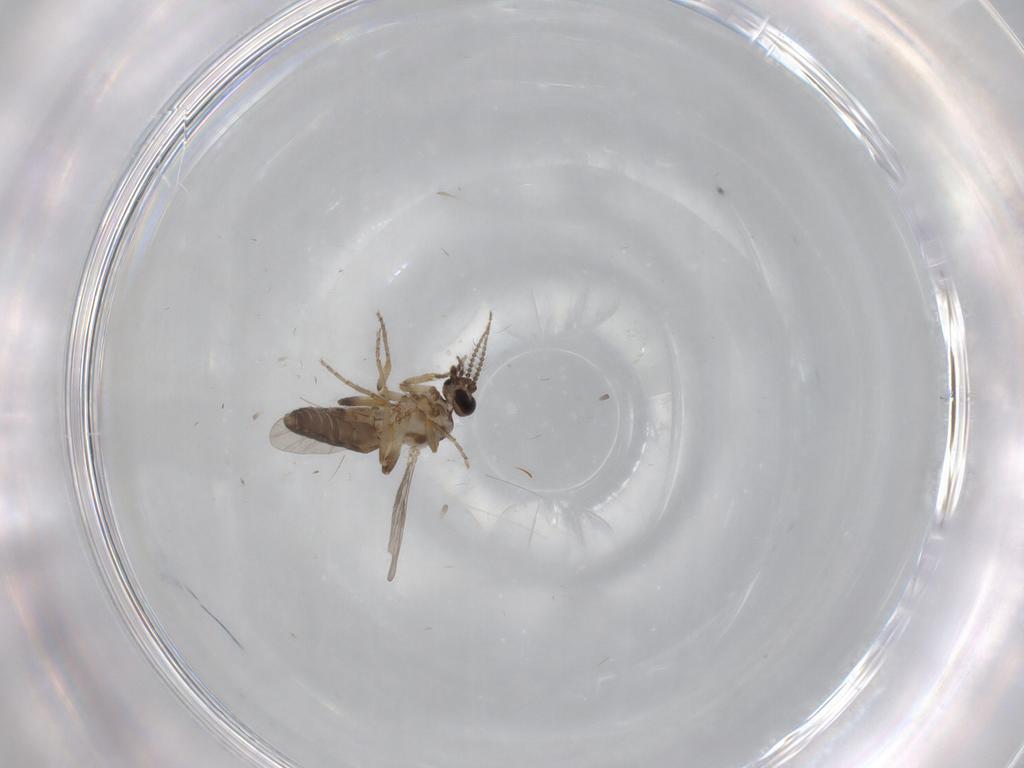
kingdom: Animalia
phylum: Arthropoda
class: Insecta
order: Diptera
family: Ceratopogonidae
